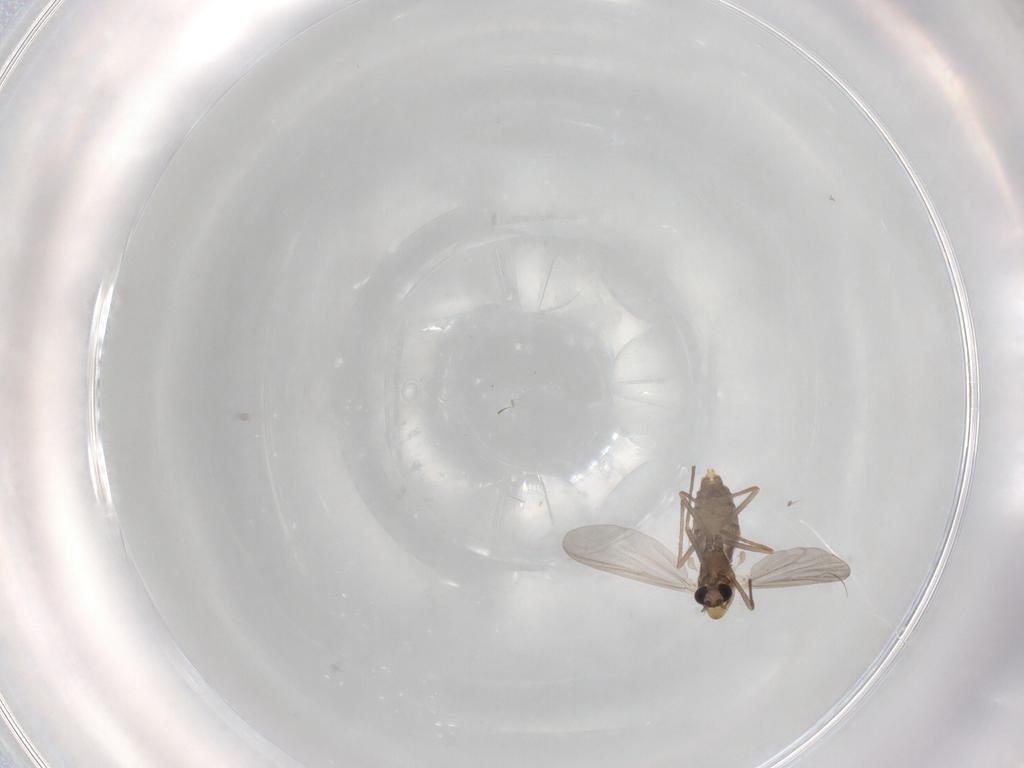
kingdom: Animalia
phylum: Arthropoda
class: Insecta
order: Diptera
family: Chironomidae
